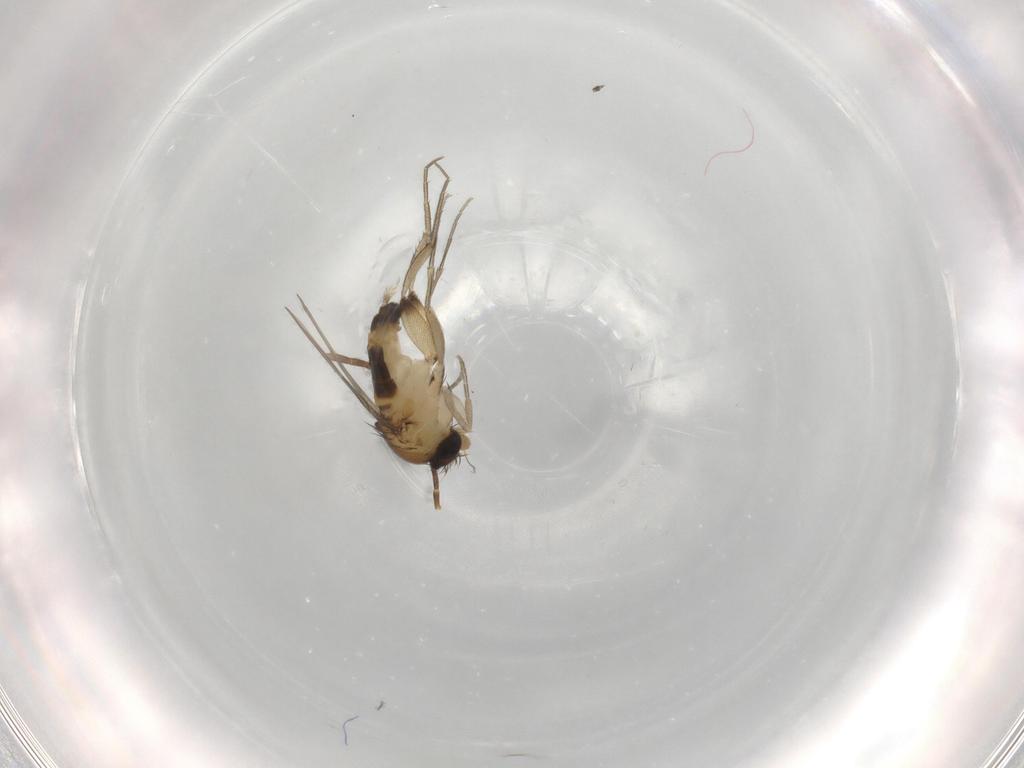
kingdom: Animalia
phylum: Arthropoda
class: Insecta
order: Diptera
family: Phoridae
